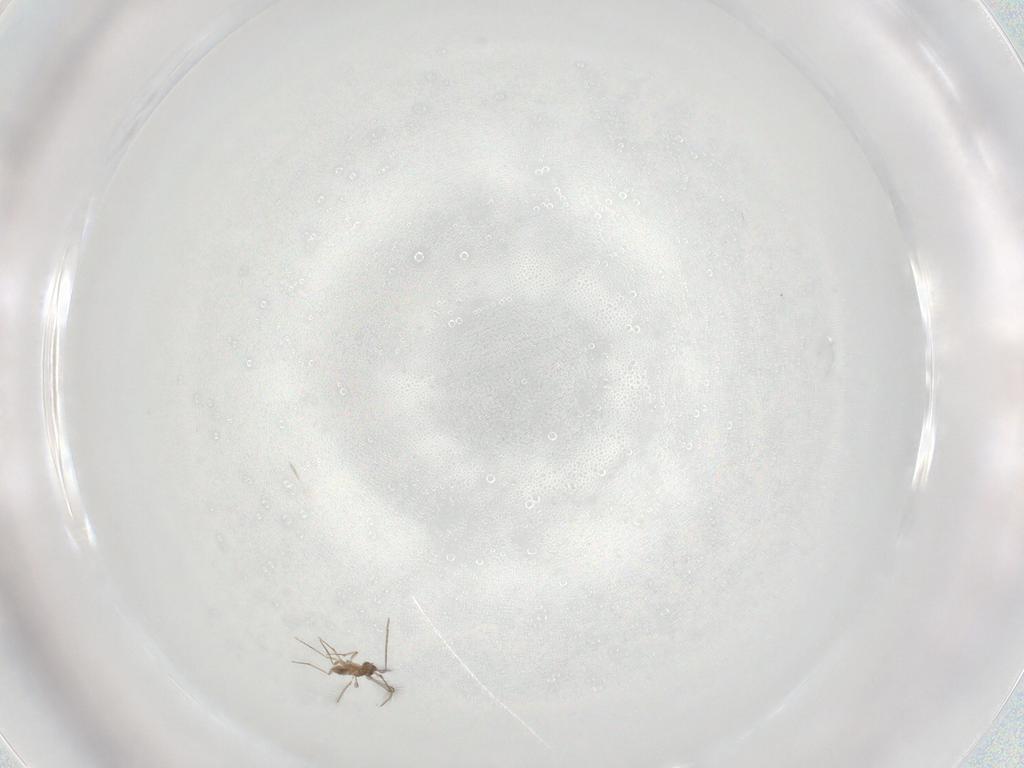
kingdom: Animalia
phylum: Arthropoda
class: Insecta
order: Hymenoptera
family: Mymaridae
